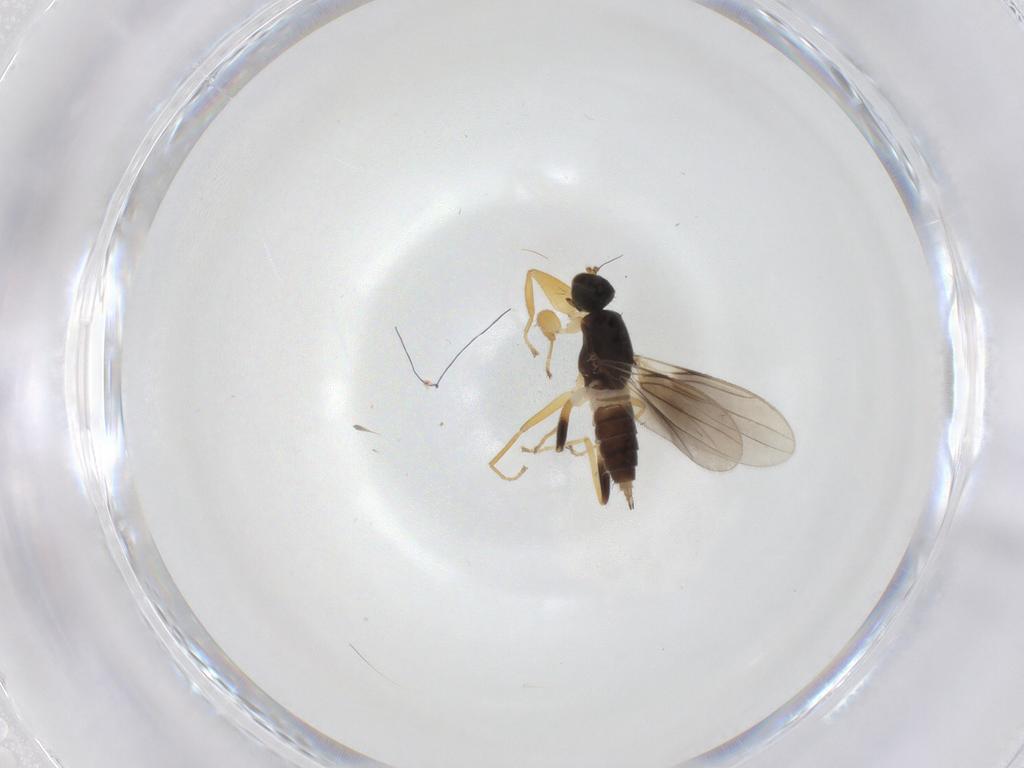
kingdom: Animalia
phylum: Arthropoda
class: Insecta
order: Diptera
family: Hybotidae
